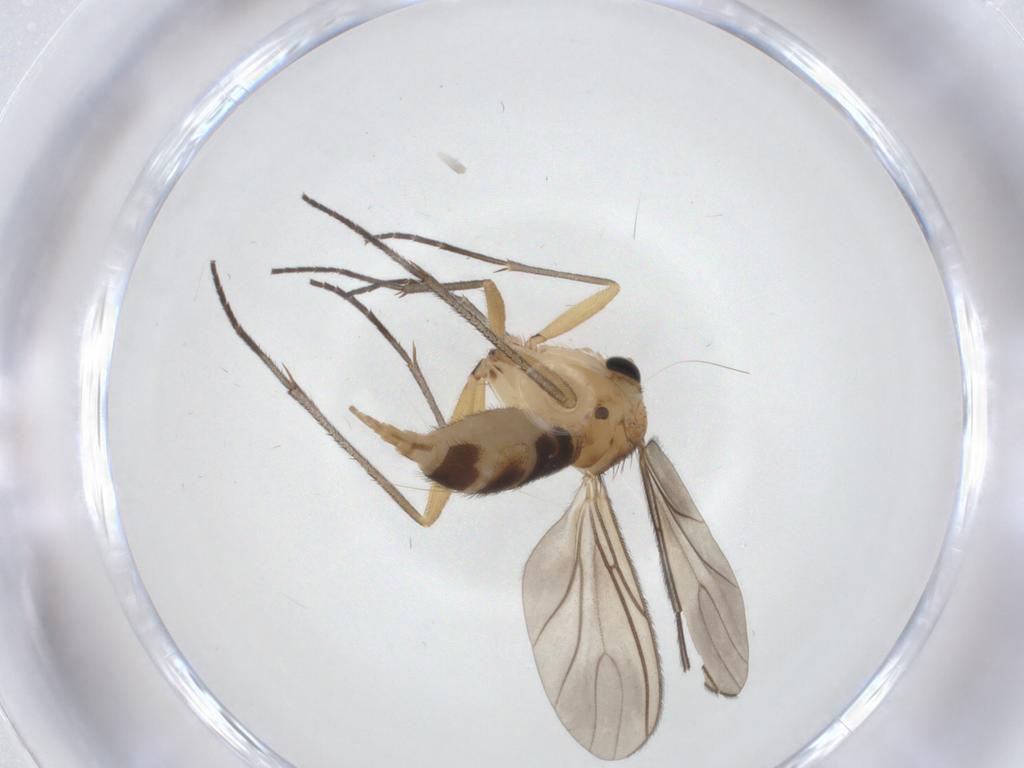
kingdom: Animalia
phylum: Arthropoda
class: Insecta
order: Diptera
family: Sciaridae
